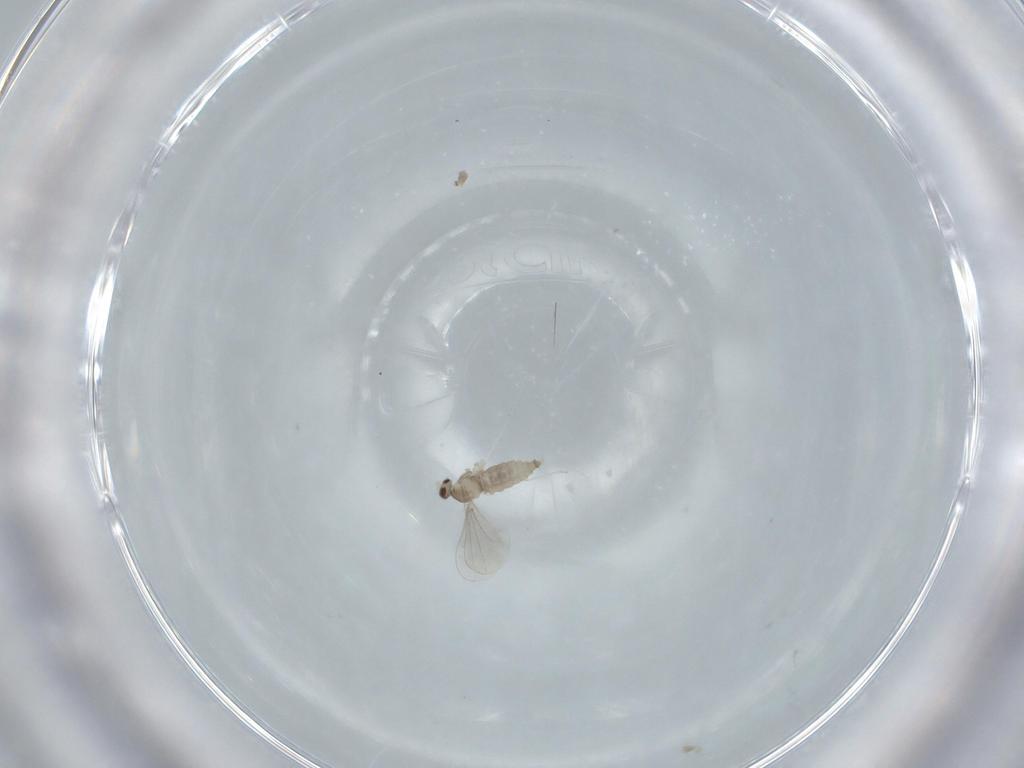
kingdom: Animalia
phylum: Arthropoda
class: Insecta
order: Diptera
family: Cecidomyiidae
